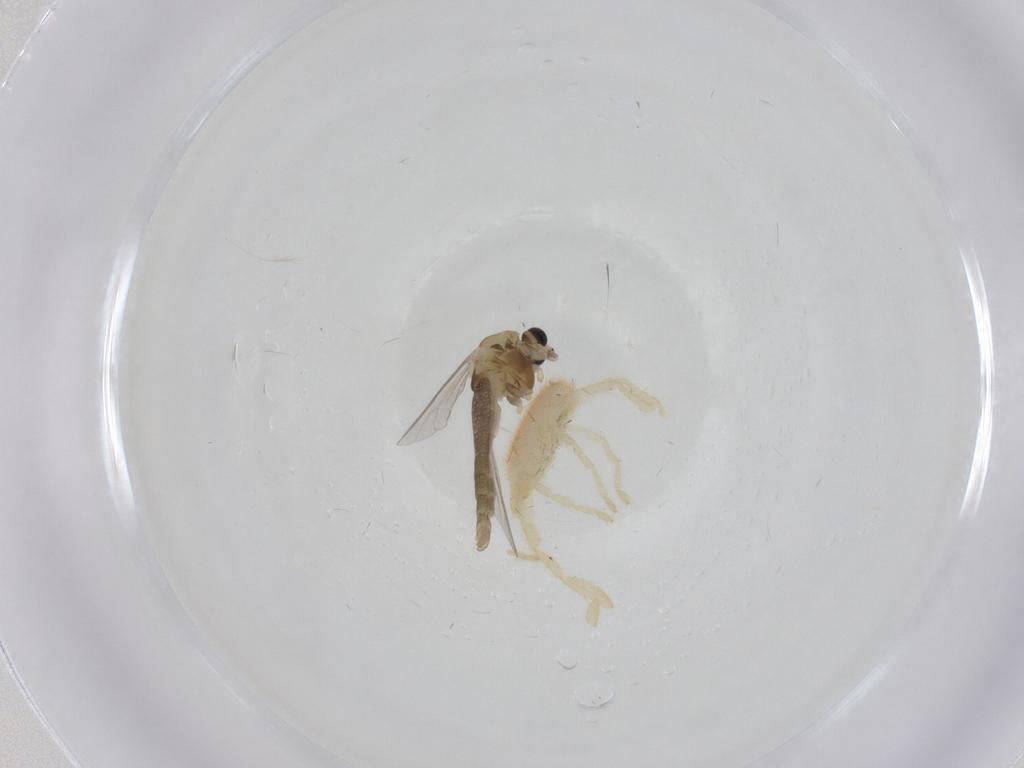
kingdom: Animalia
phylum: Arthropoda
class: Arachnida
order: Trombidiformes
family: Erythraeidae
